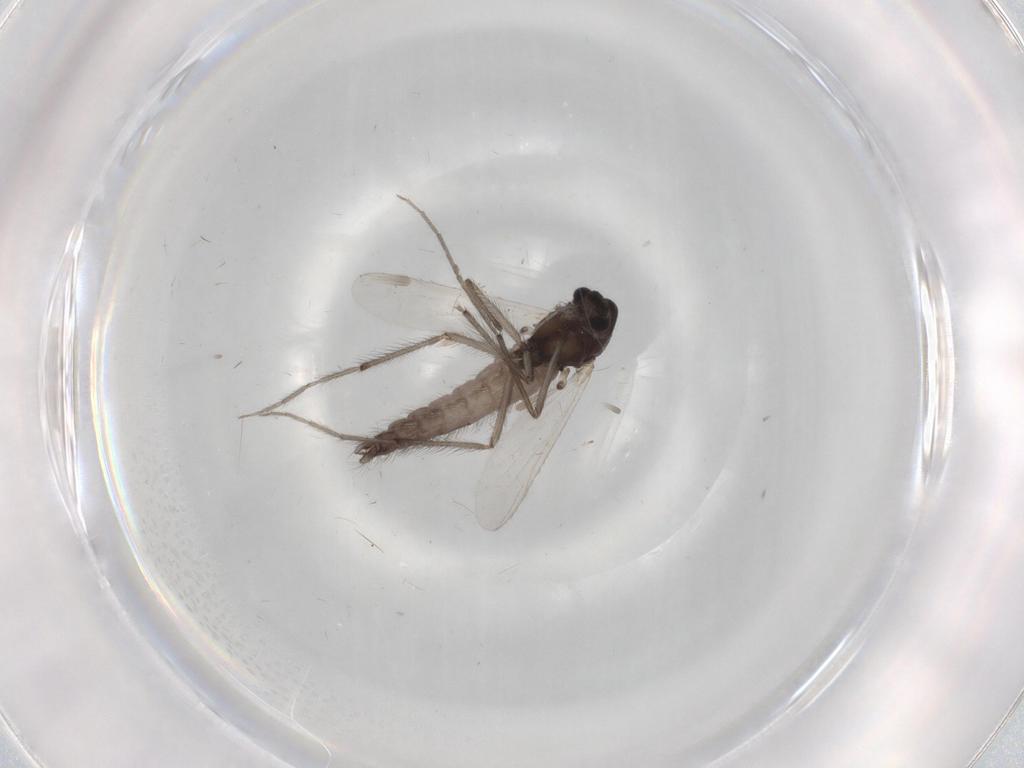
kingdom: Animalia
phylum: Arthropoda
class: Insecta
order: Diptera
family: Chironomidae
